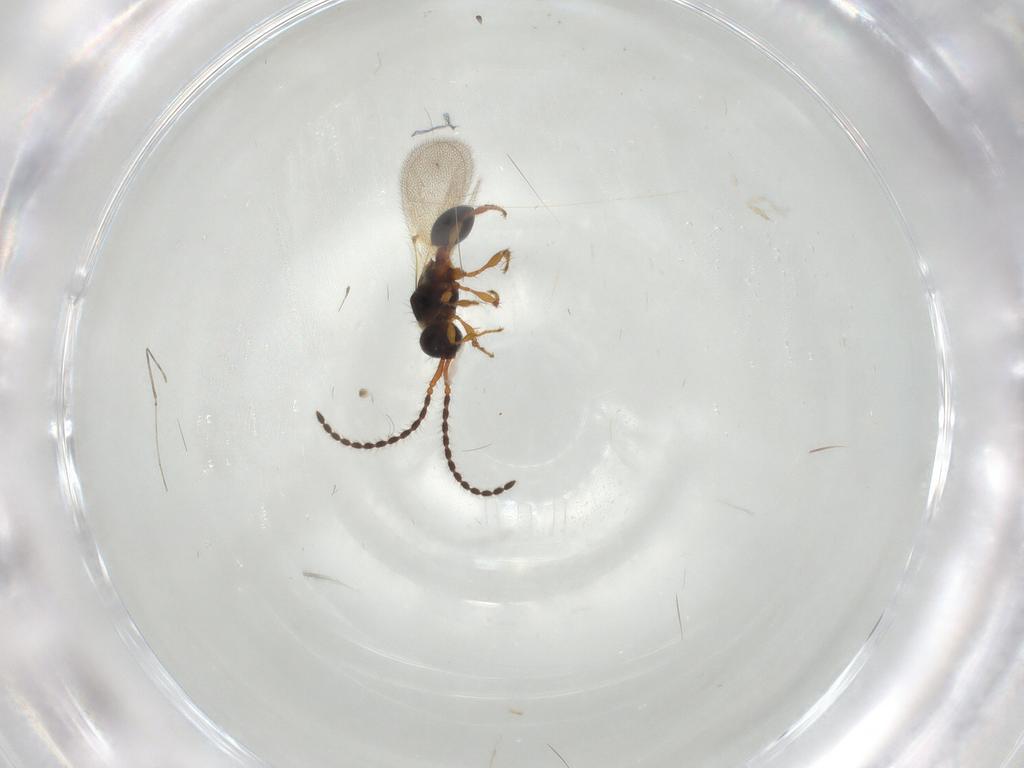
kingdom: Animalia
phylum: Arthropoda
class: Insecta
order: Hymenoptera
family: Diapriidae
